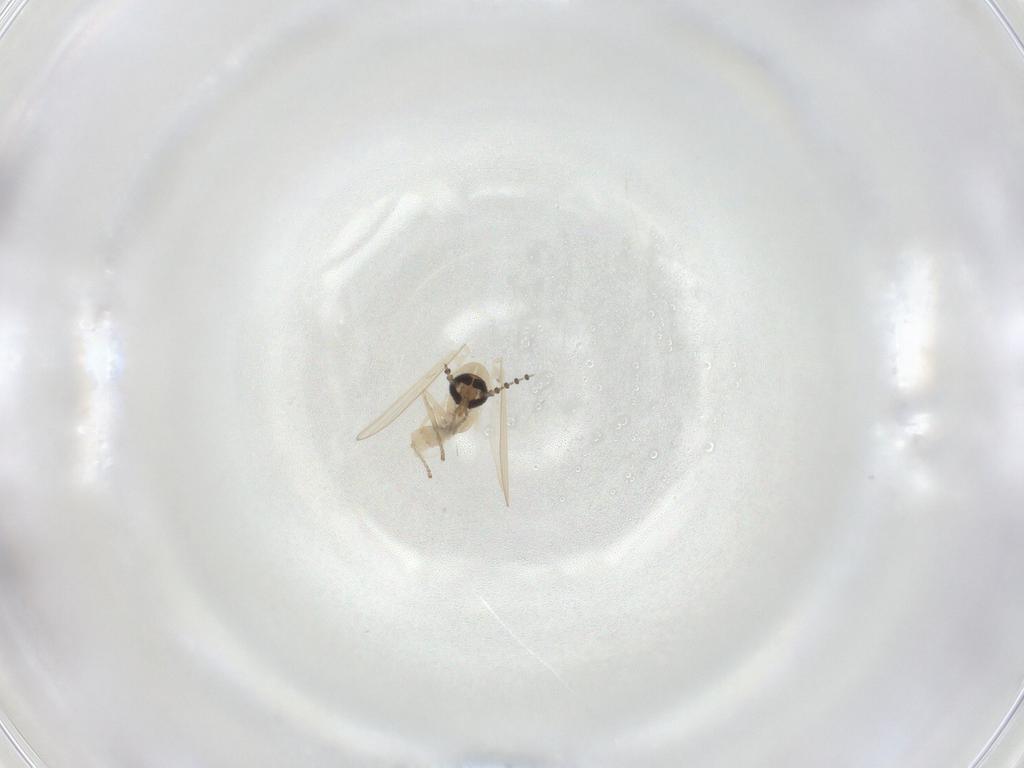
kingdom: Animalia
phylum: Arthropoda
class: Insecta
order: Diptera
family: Psychodidae
